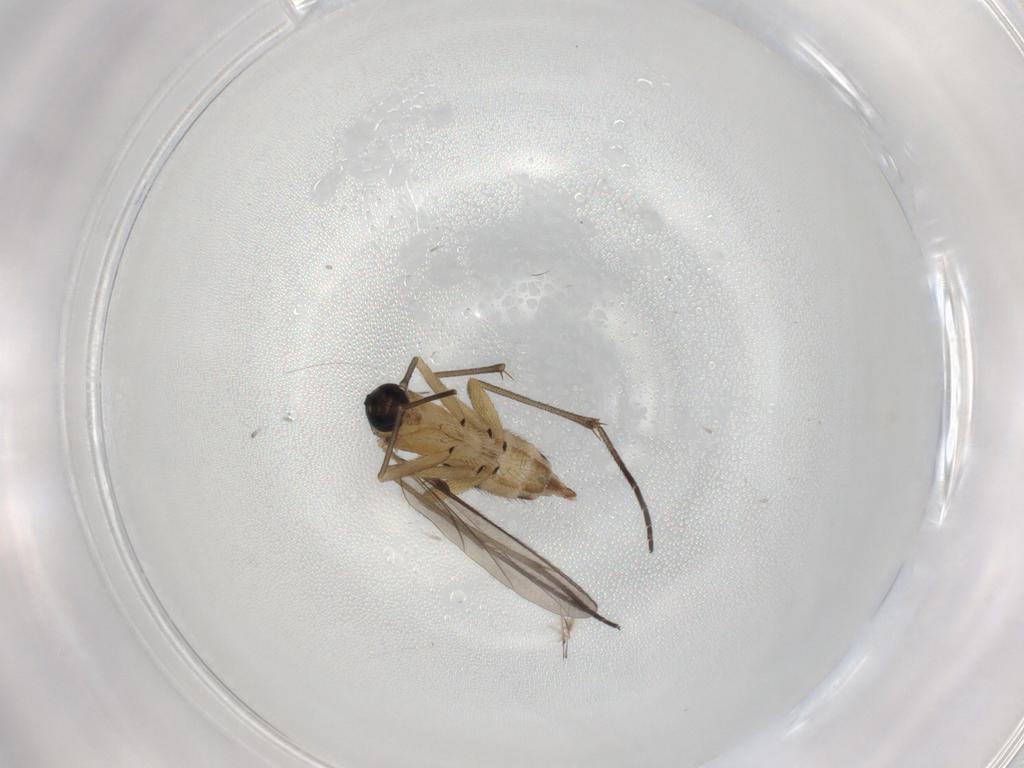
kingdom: Animalia
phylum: Arthropoda
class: Insecta
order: Diptera
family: Sciaridae
